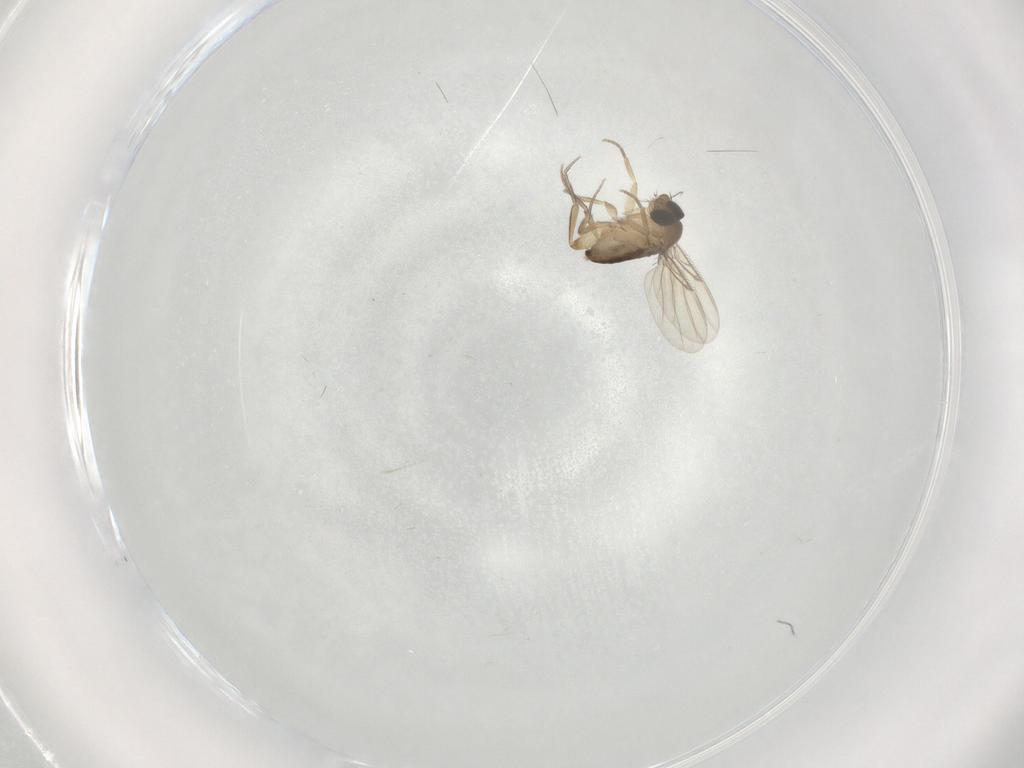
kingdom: Animalia
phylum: Arthropoda
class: Insecta
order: Diptera
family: Phoridae
